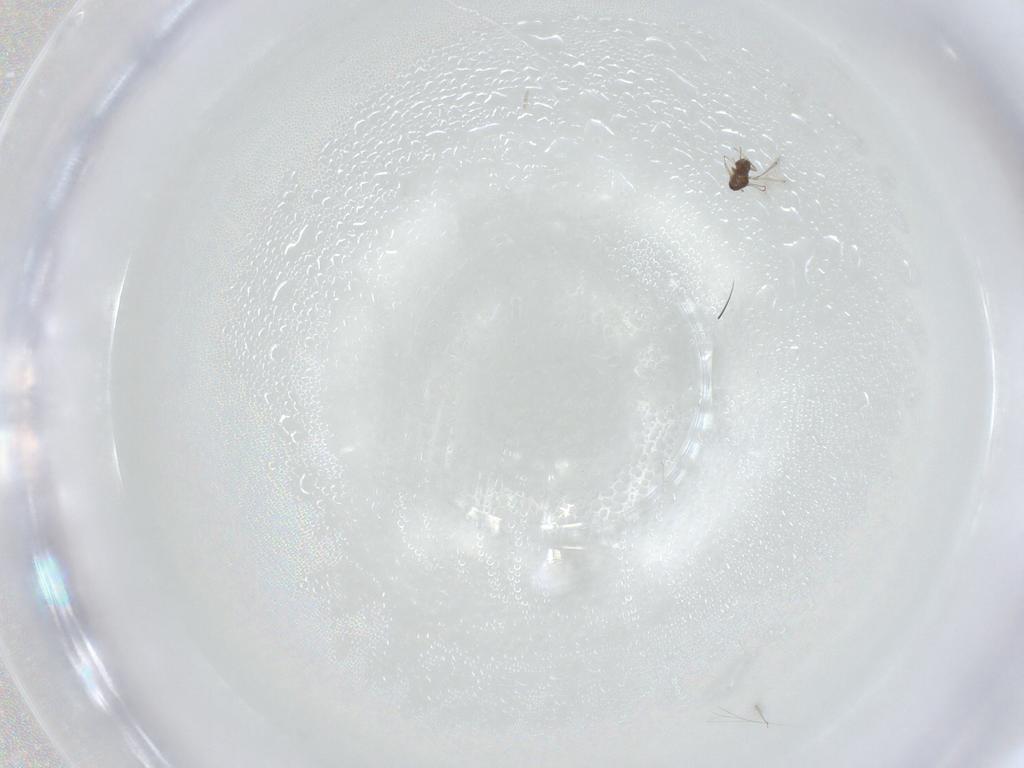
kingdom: Animalia
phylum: Arthropoda
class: Insecta
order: Hymenoptera
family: Mymaridae
